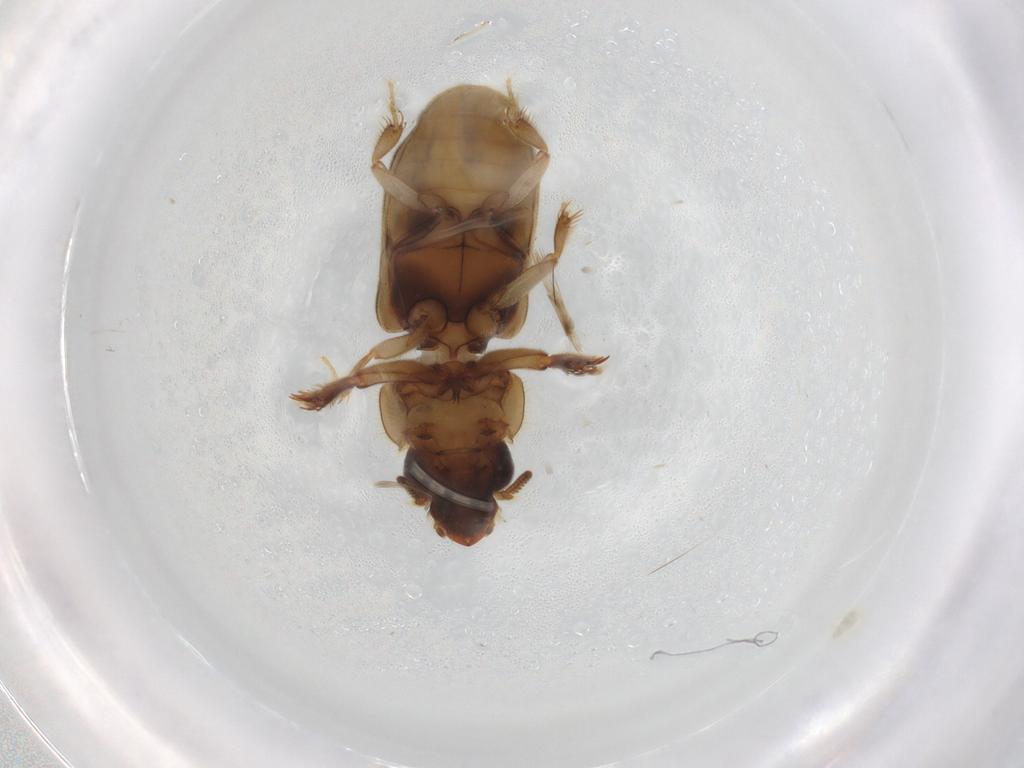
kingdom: Animalia
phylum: Arthropoda
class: Insecta
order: Coleoptera
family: Heteroceridae
